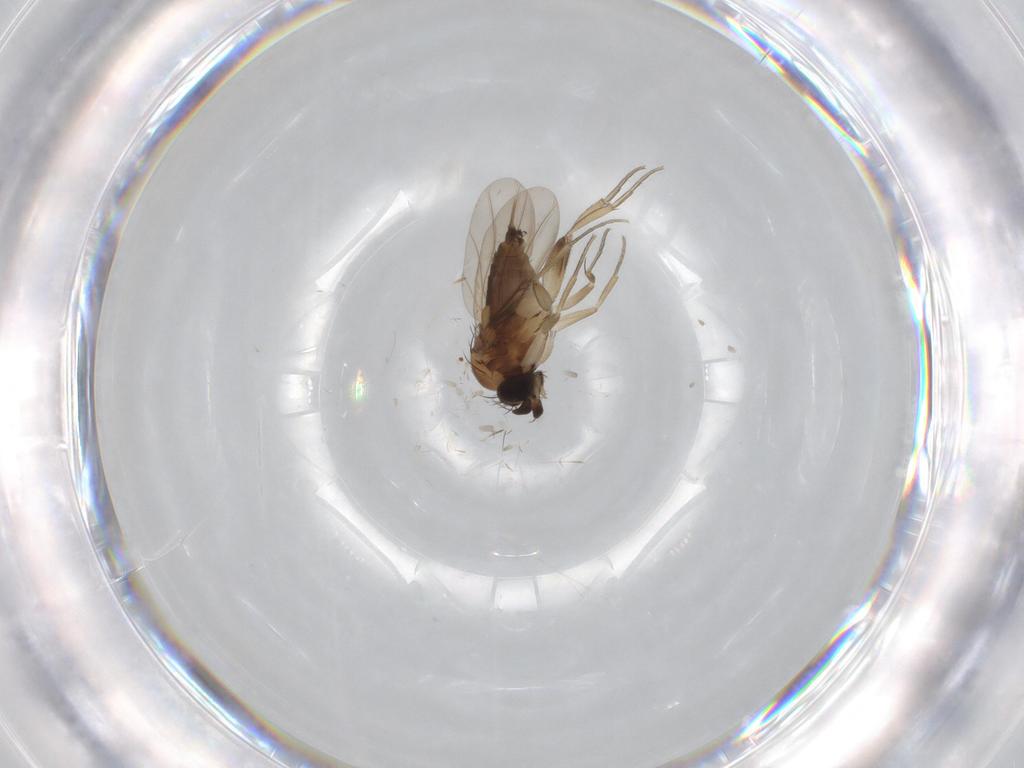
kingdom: Animalia
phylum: Arthropoda
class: Insecta
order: Diptera
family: Phoridae
